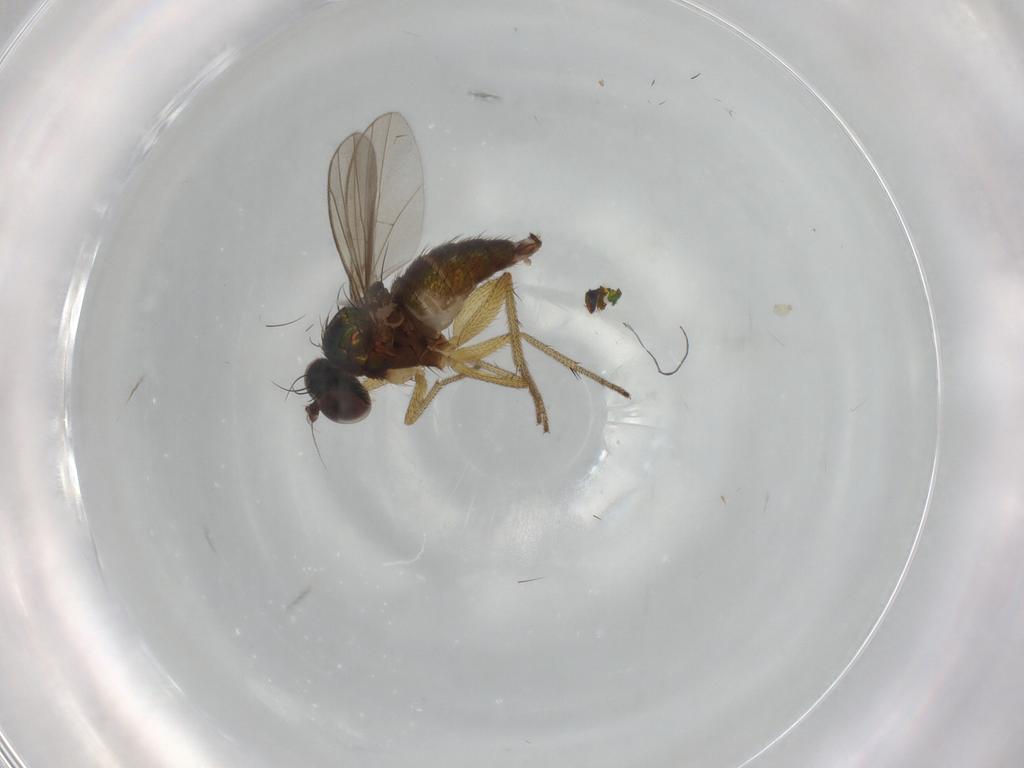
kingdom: Animalia
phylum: Arthropoda
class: Insecta
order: Diptera
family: Dolichopodidae
